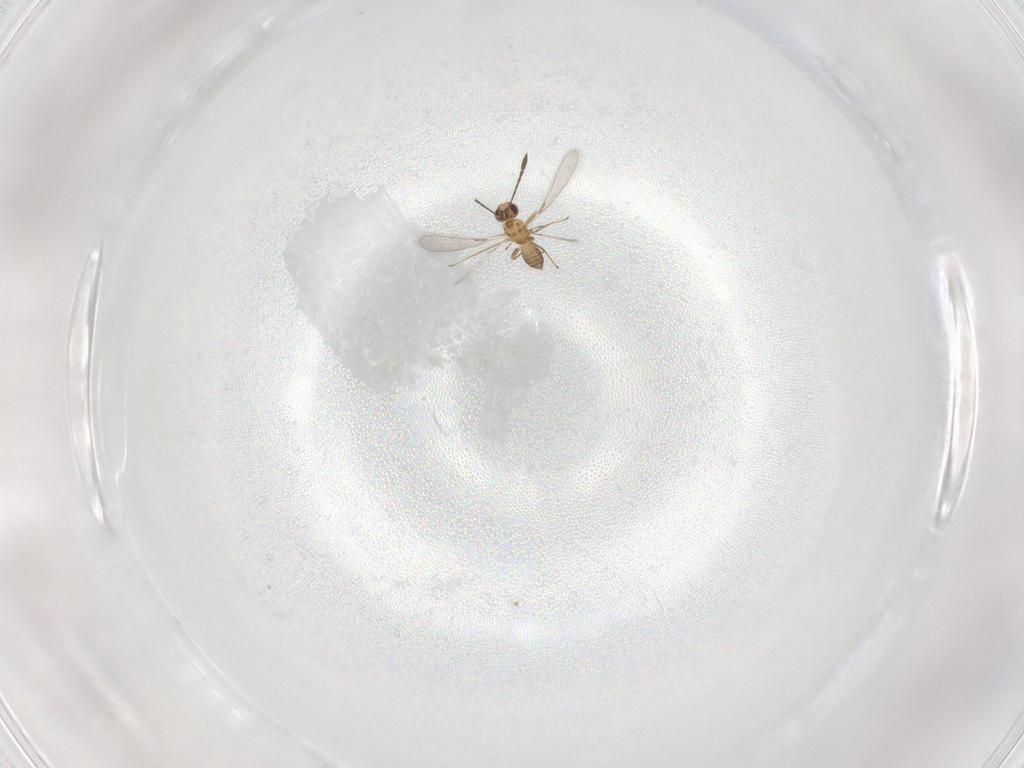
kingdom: Animalia
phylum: Arthropoda
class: Insecta
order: Hymenoptera
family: Mymaridae
